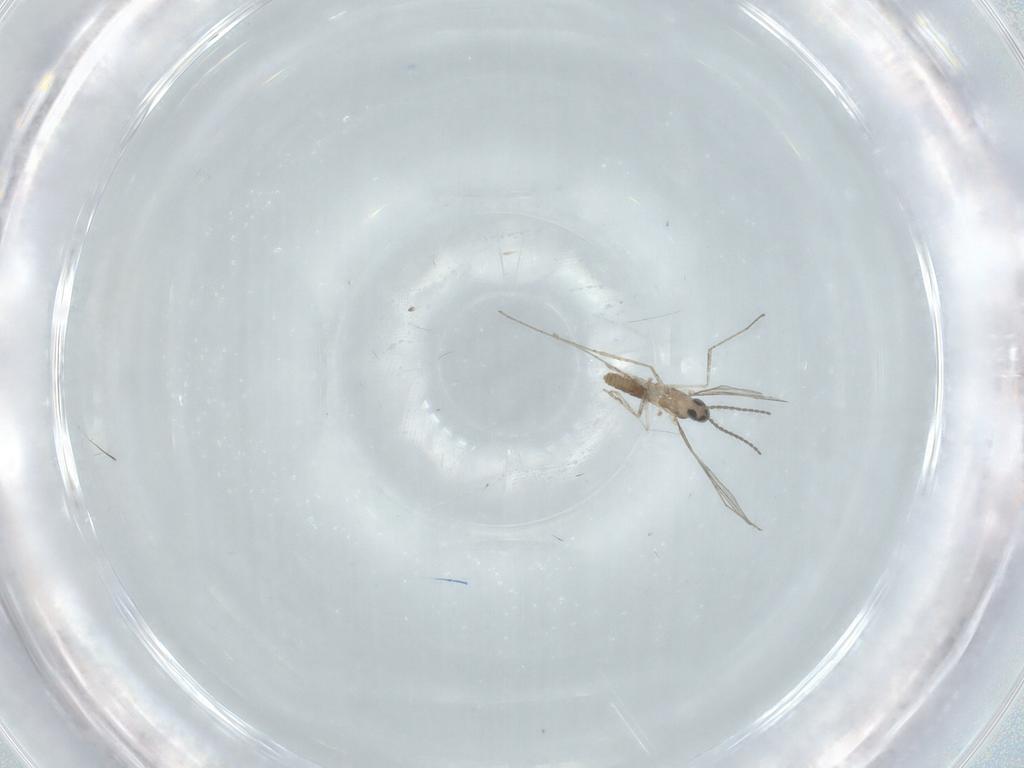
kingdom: Animalia
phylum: Arthropoda
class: Insecta
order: Diptera
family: Cecidomyiidae
